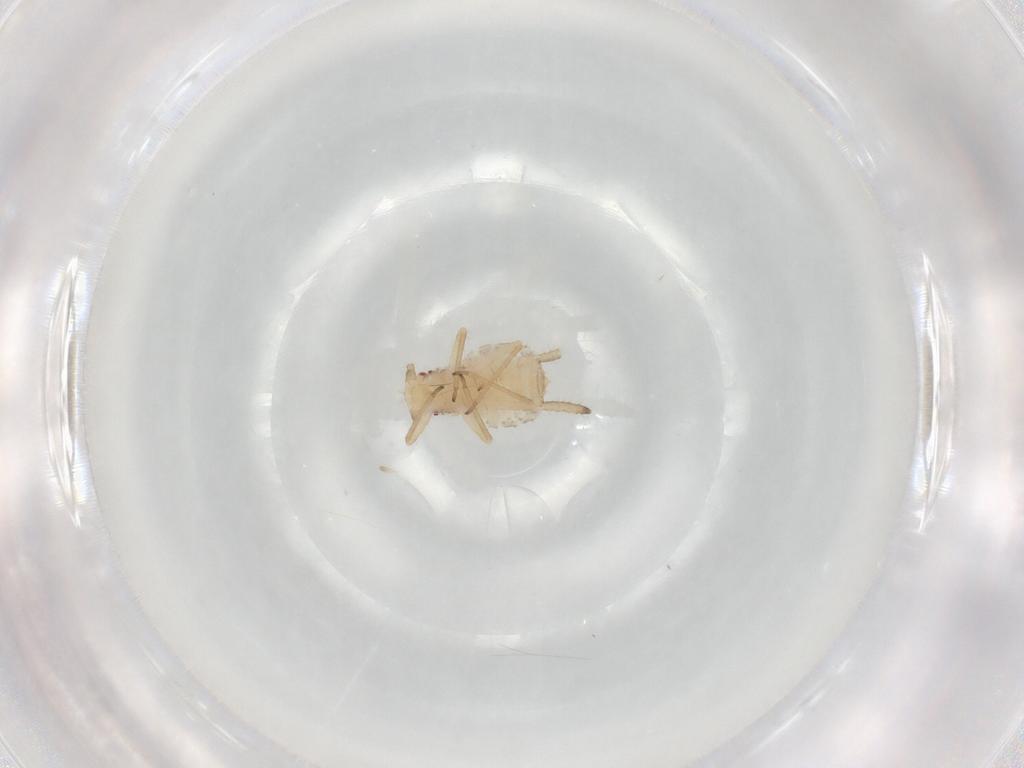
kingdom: Animalia
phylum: Arthropoda
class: Insecta
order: Hemiptera
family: Aphididae
